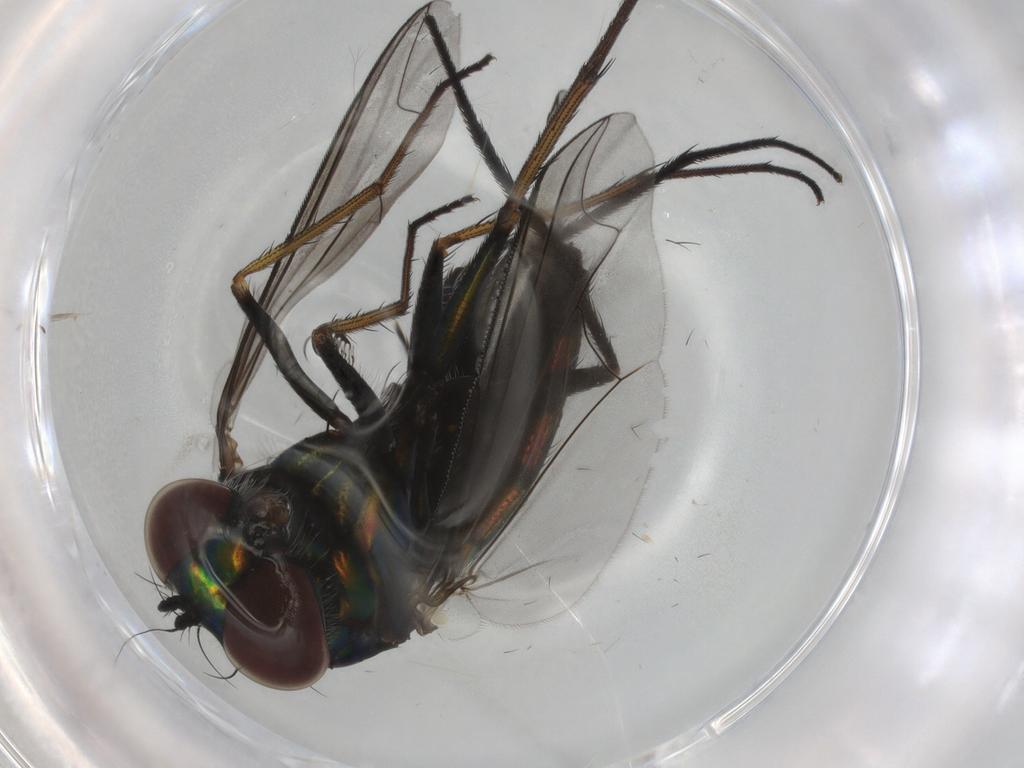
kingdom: Animalia
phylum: Arthropoda
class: Insecta
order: Diptera
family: Dolichopodidae
